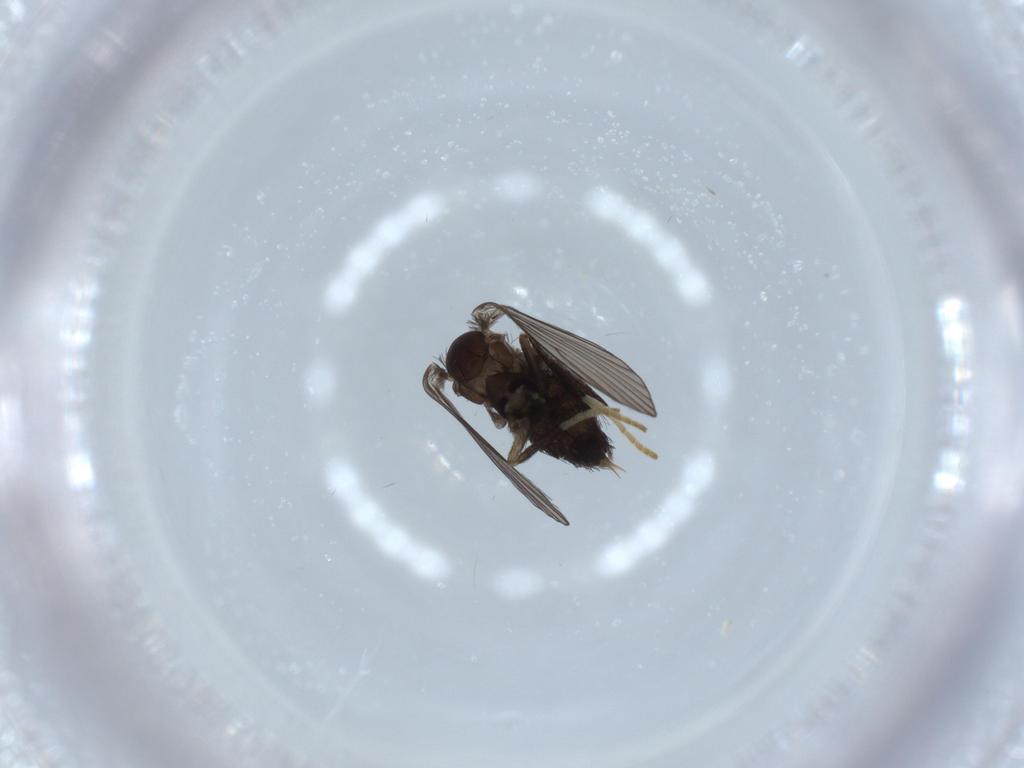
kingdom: Animalia
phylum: Arthropoda
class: Insecta
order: Diptera
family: Psychodidae
